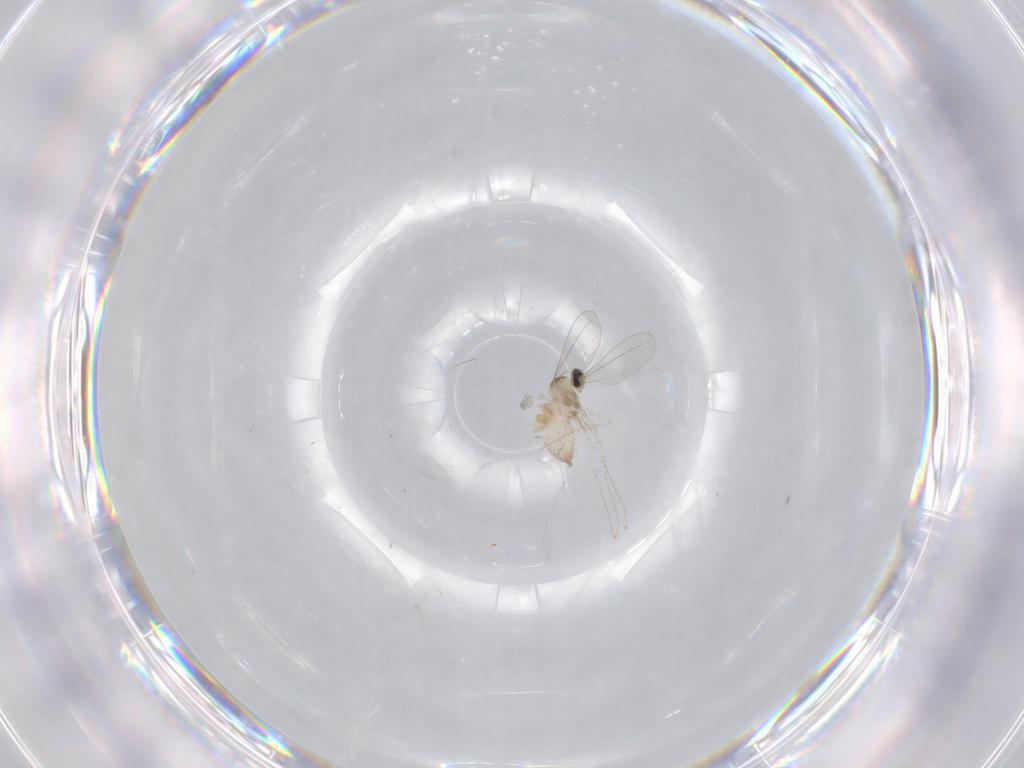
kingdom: Animalia
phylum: Arthropoda
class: Insecta
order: Diptera
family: Cecidomyiidae
